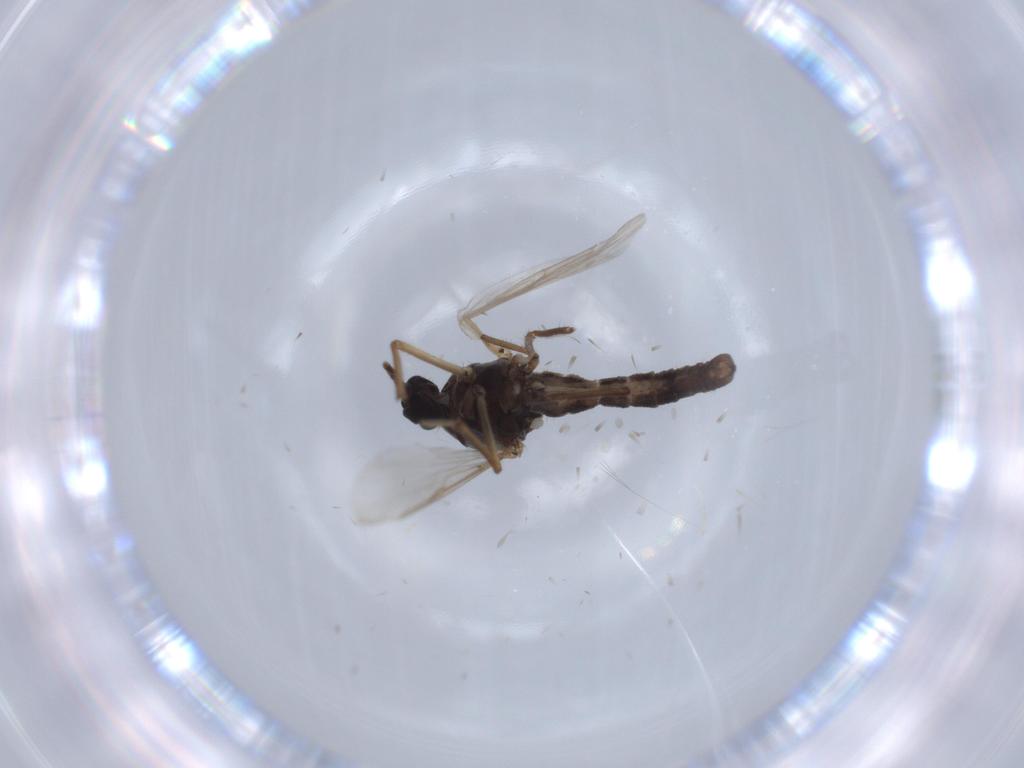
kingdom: Animalia
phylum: Arthropoda
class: Insecta
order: Diptera
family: Ceratopogonidae
